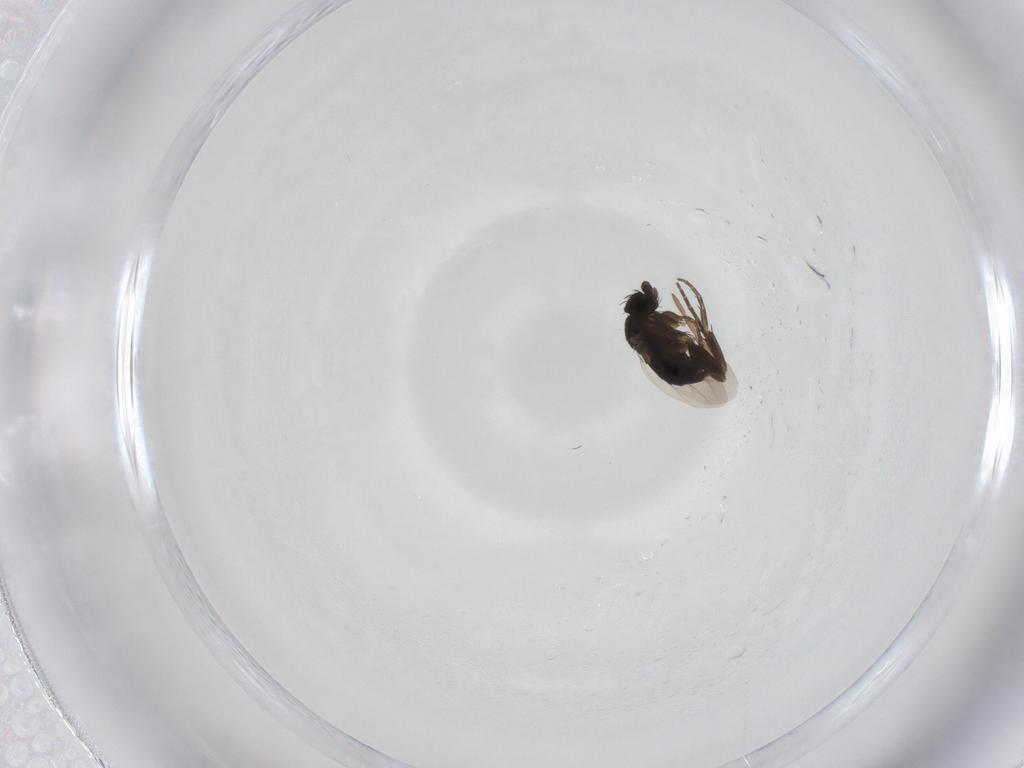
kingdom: Animalia
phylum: Arthropoda
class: Insecta
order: Diptera
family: Phoridae
